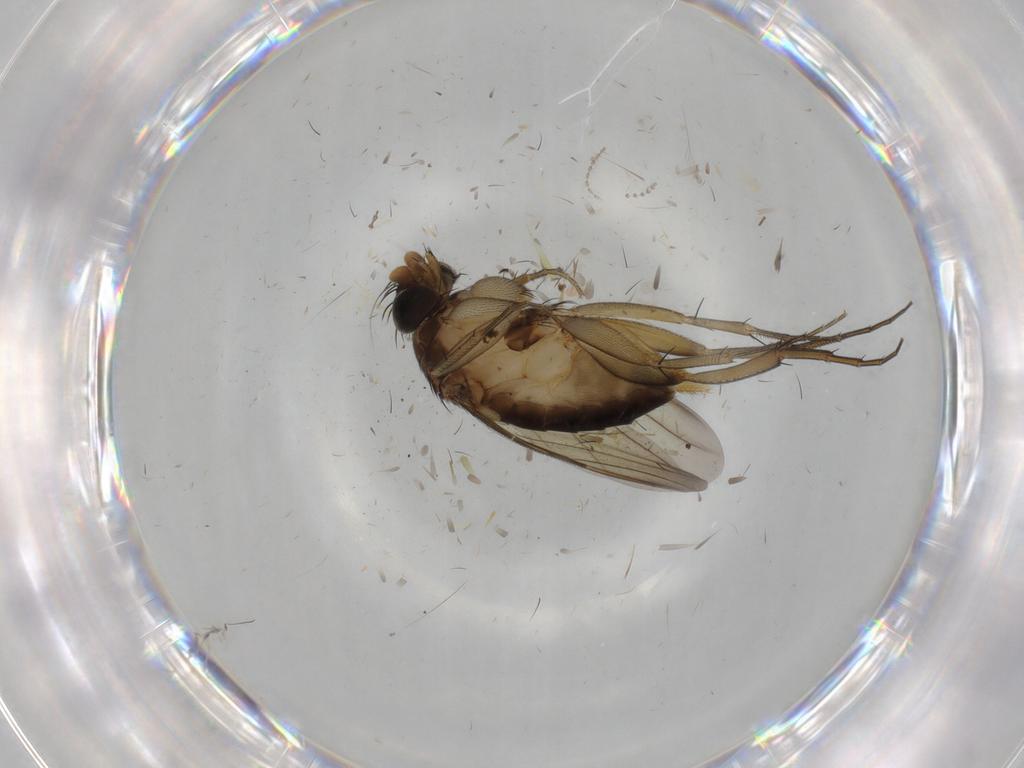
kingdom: Animalia
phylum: Arthropoda
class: Insecta
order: Diptera
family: Phoridae
